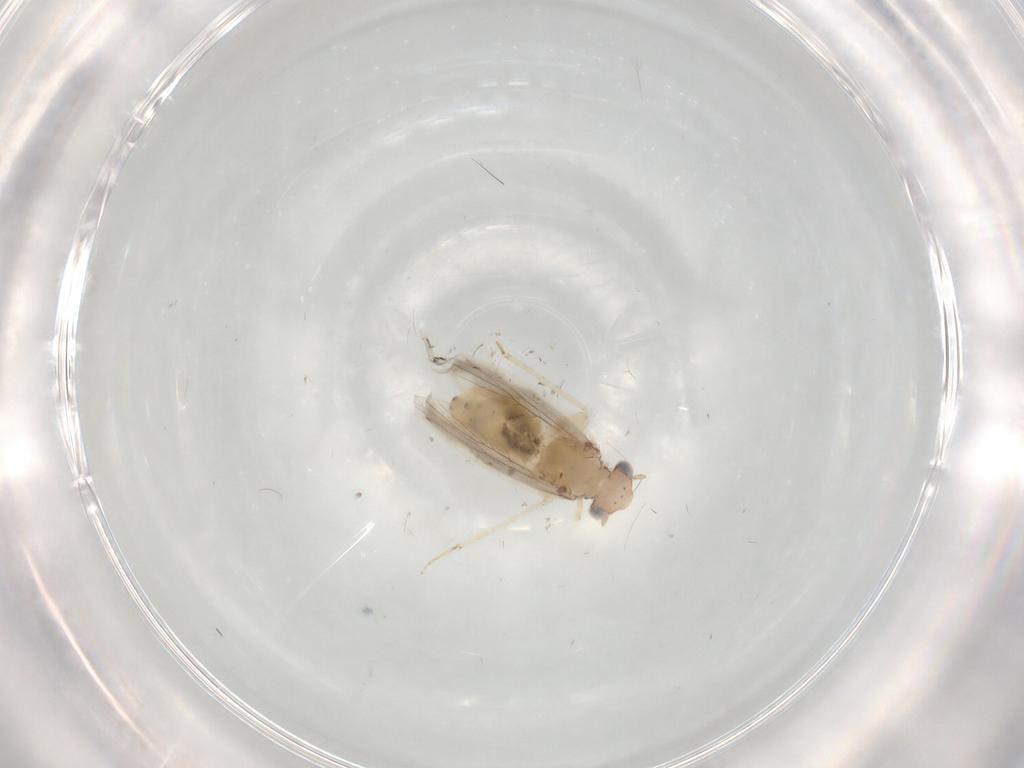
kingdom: Animalia
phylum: Arthropoda
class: Insecta
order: Psocodea
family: Lepidopsocidae
